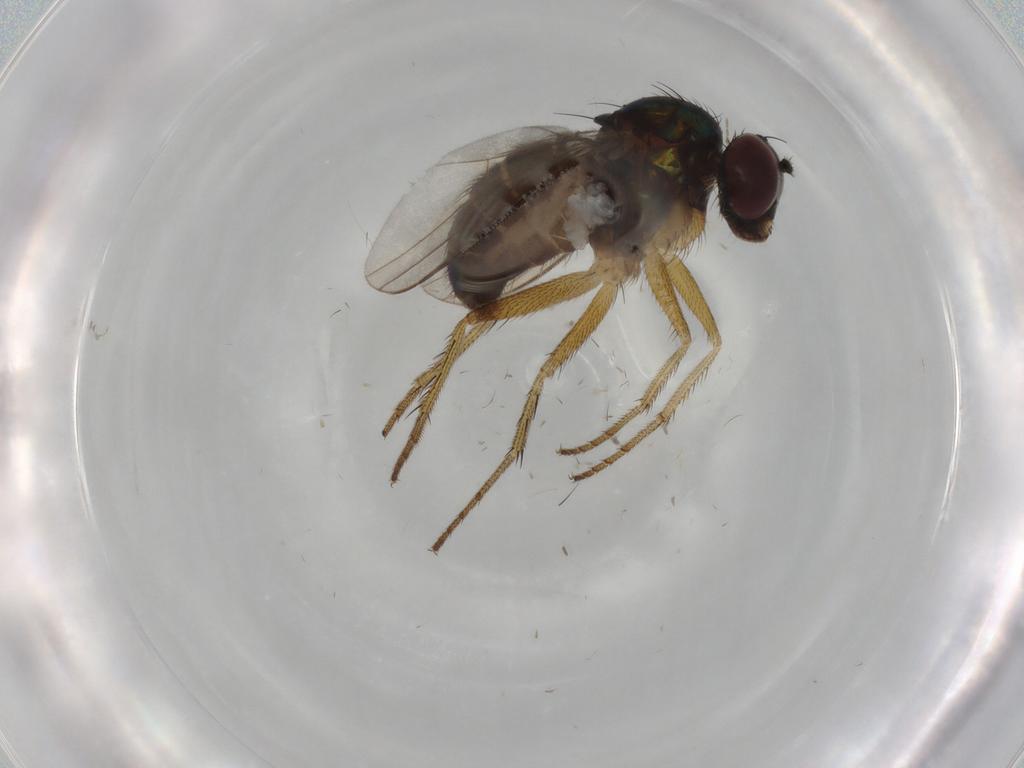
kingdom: Animalia
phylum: Arthropoda
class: Insecta
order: Diptera
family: Dolichopodidae
